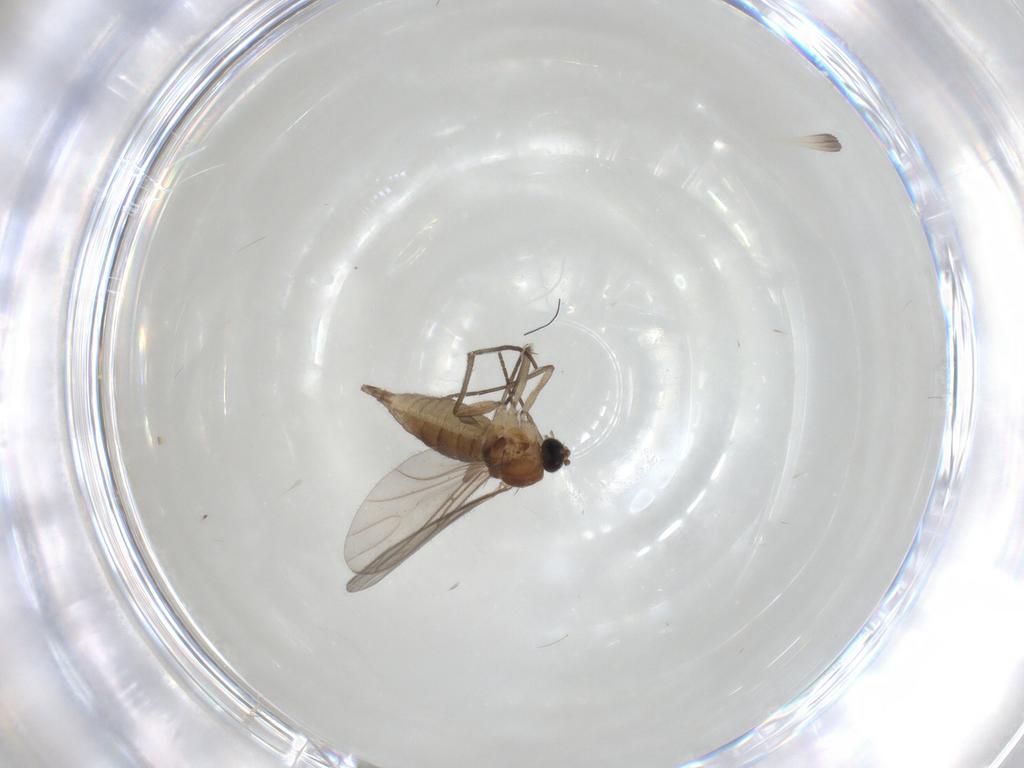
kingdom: Animalia
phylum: Arthropoda
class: Insecta
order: Diptera
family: Cecidomyiidae
